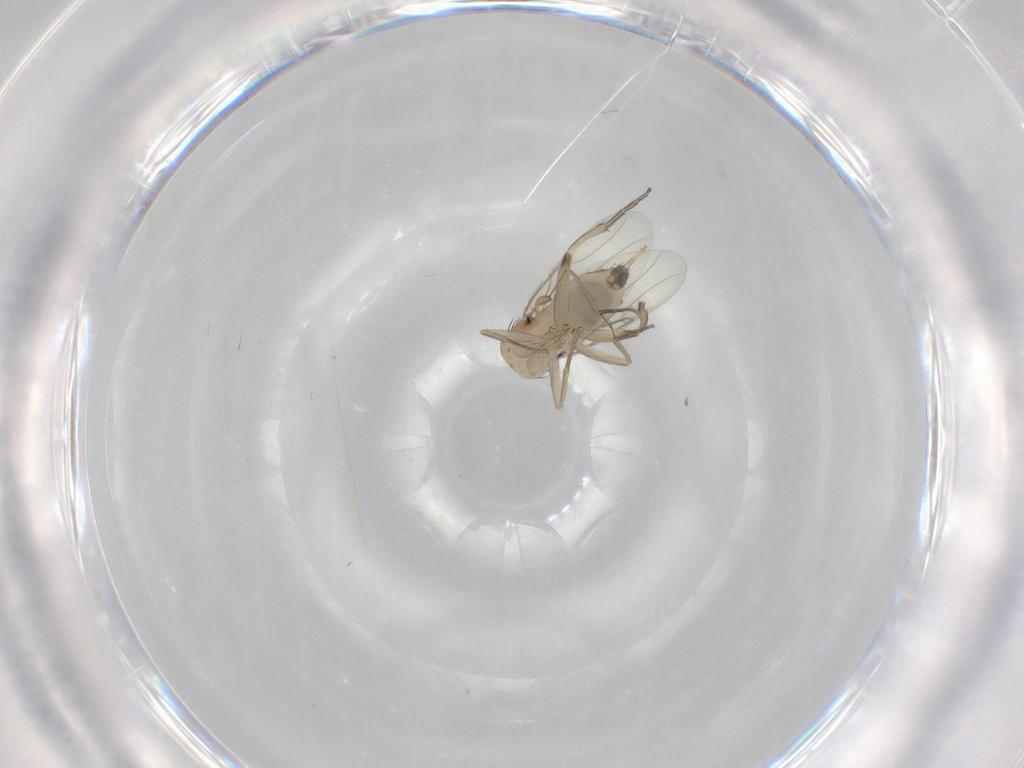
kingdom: Animalia
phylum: Arthropoda
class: Insecta
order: Diptera
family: Phoridae
